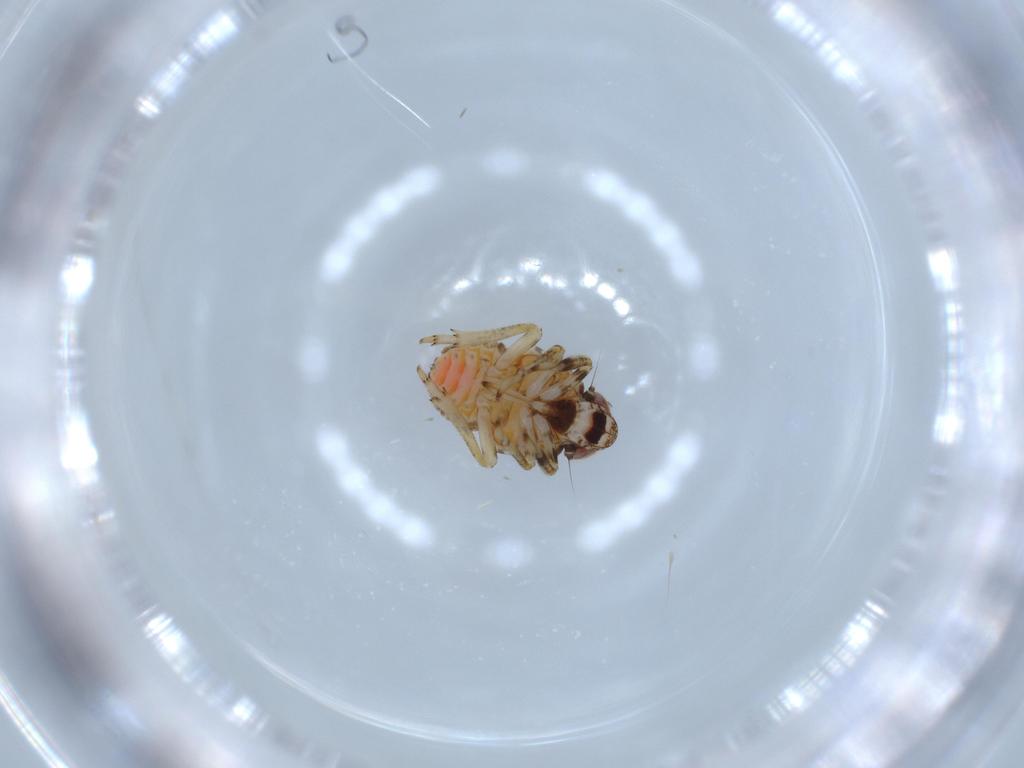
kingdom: Animalia
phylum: Arthropoda
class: Insecta
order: Hemiptera
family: Issidae
